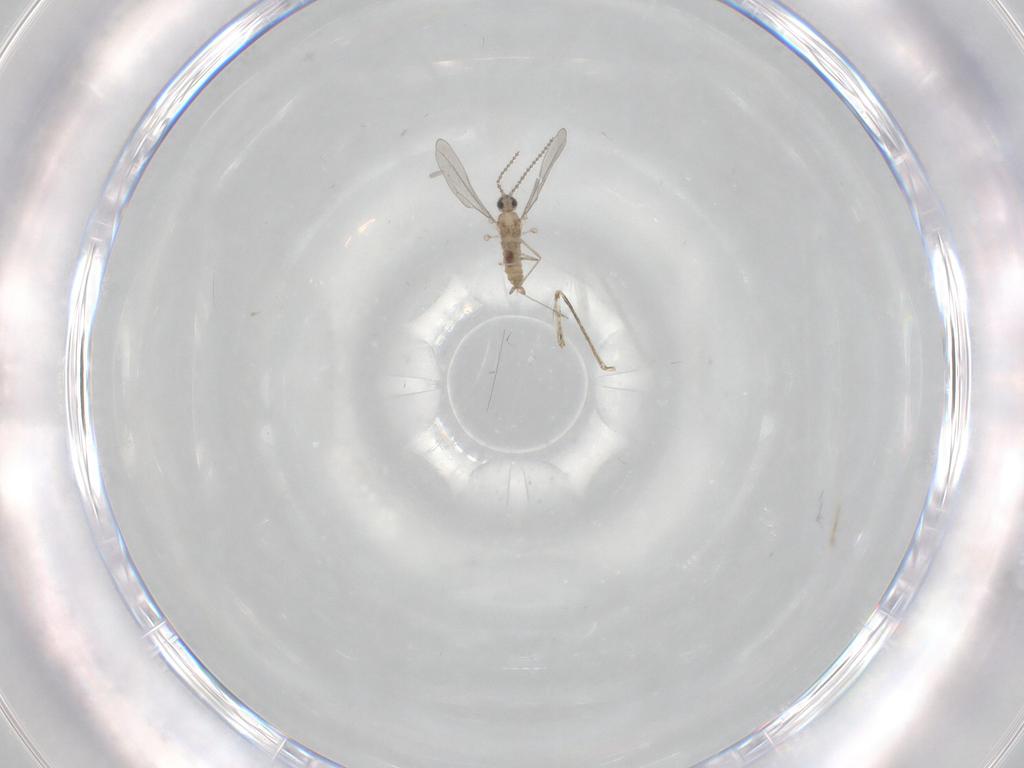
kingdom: Animalia
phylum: Arthropoda
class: Insecta
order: Diptera
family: Cecidomyiidae
